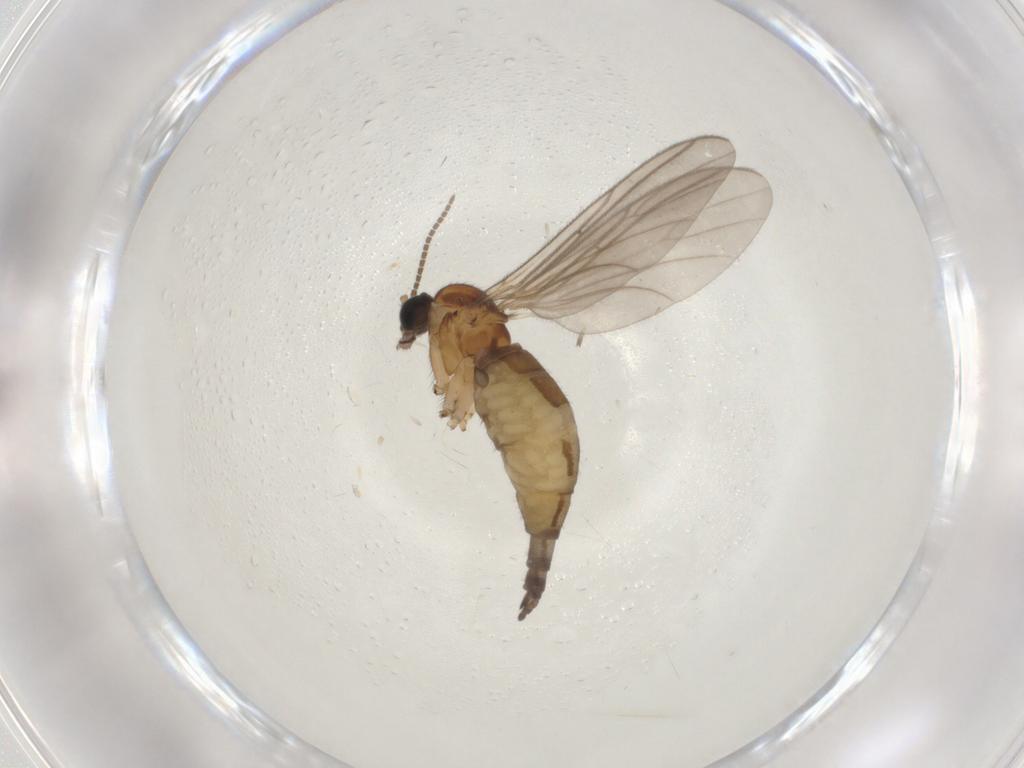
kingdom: Animalia
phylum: Arthropoda
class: Insecta
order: Diptera
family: Sciaridae
